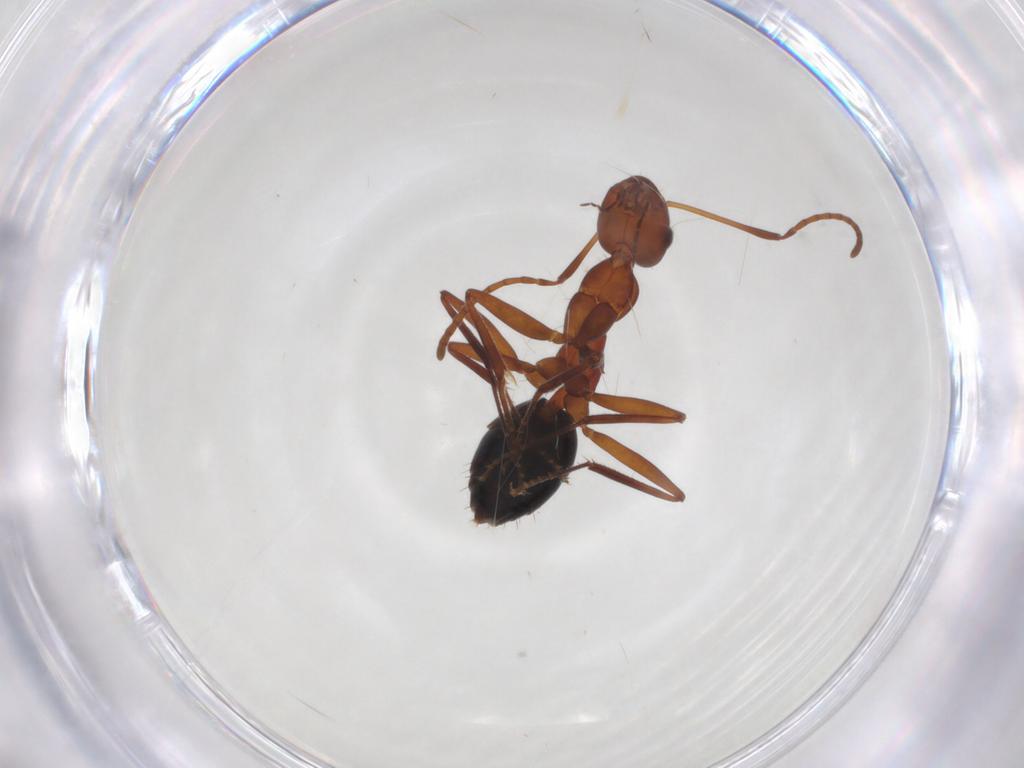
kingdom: Animalia
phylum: Arthropoda
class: Insecta
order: Hymenoptera
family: Formicidae
